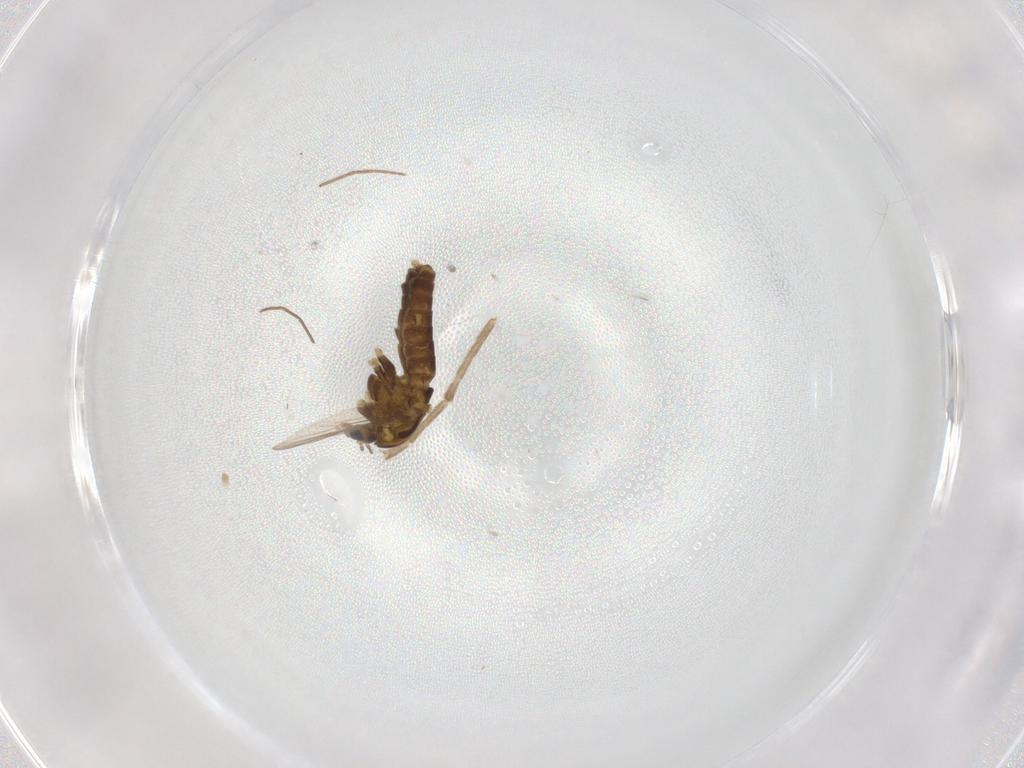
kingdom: Animalia
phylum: Arthropoda
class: Insecta
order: Diptera
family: Chironomidae
